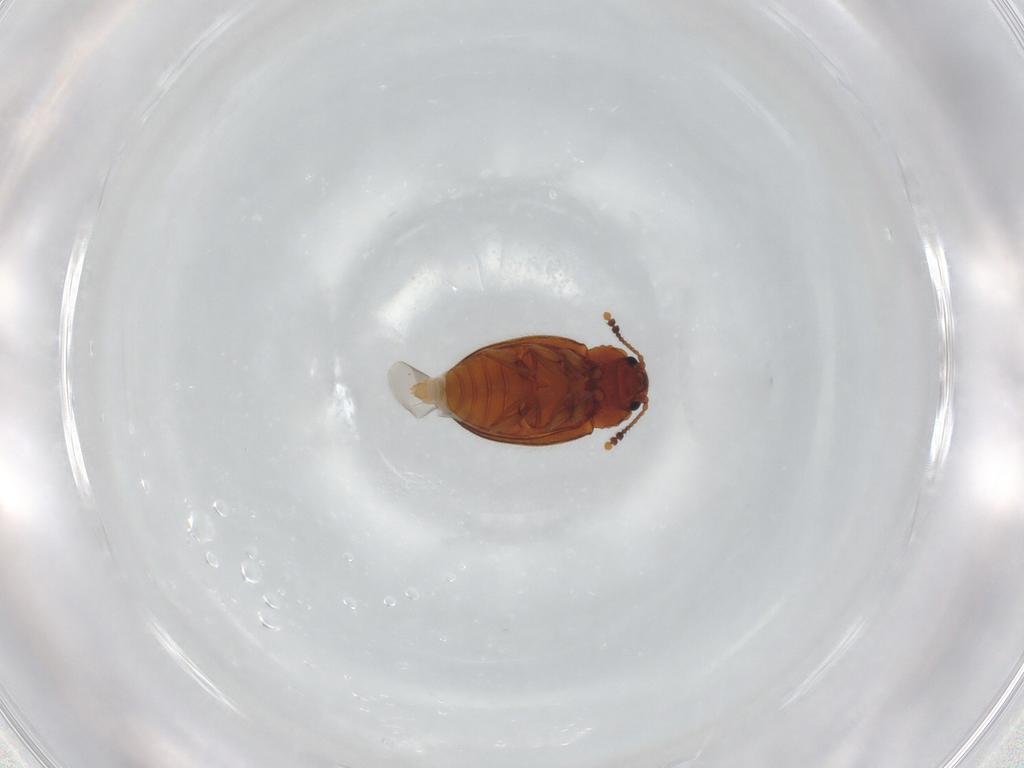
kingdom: Animalia
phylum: Arthropoda
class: Insecta
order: Coleoptera
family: Erotylidae
